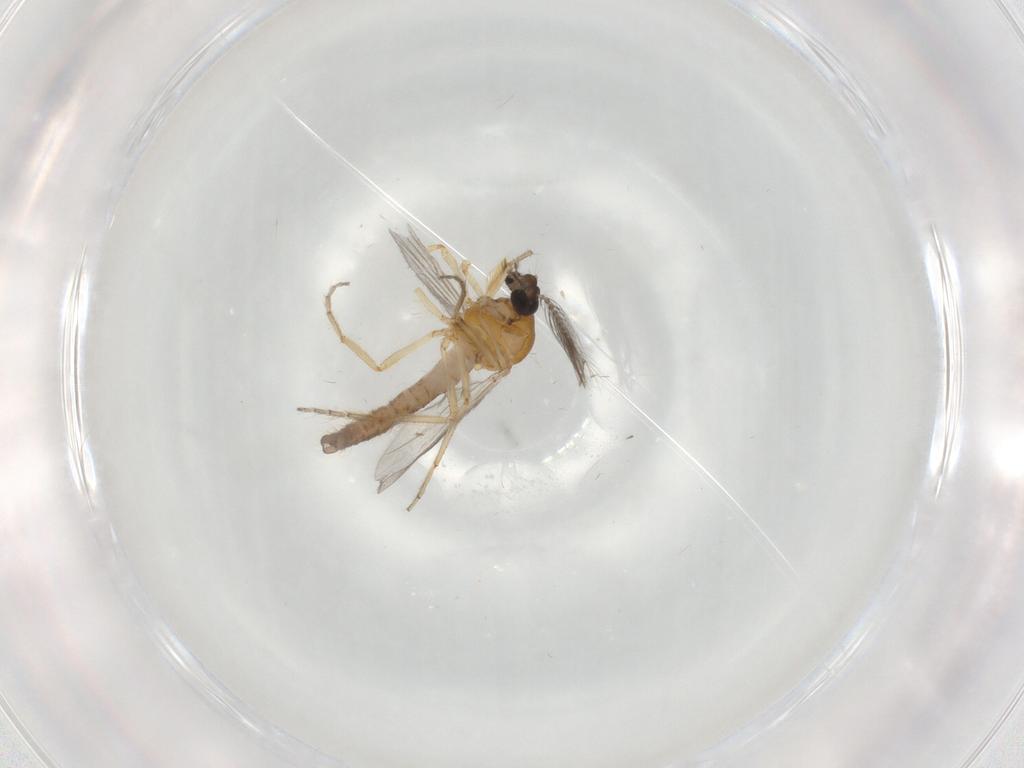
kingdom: Animalia
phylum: Arthropoda
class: Insecta
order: Diptera
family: Ceratopogonidae
